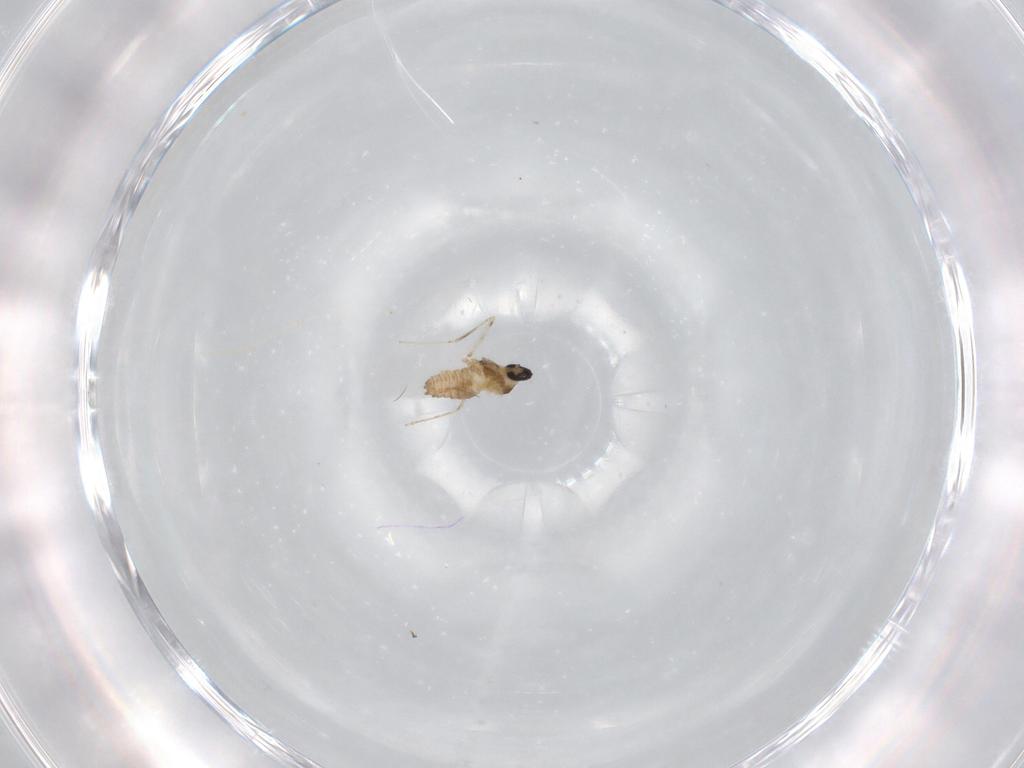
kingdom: Animalia
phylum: Arthropoda
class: Insecta
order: Diptera
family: Cecidomyiidae
